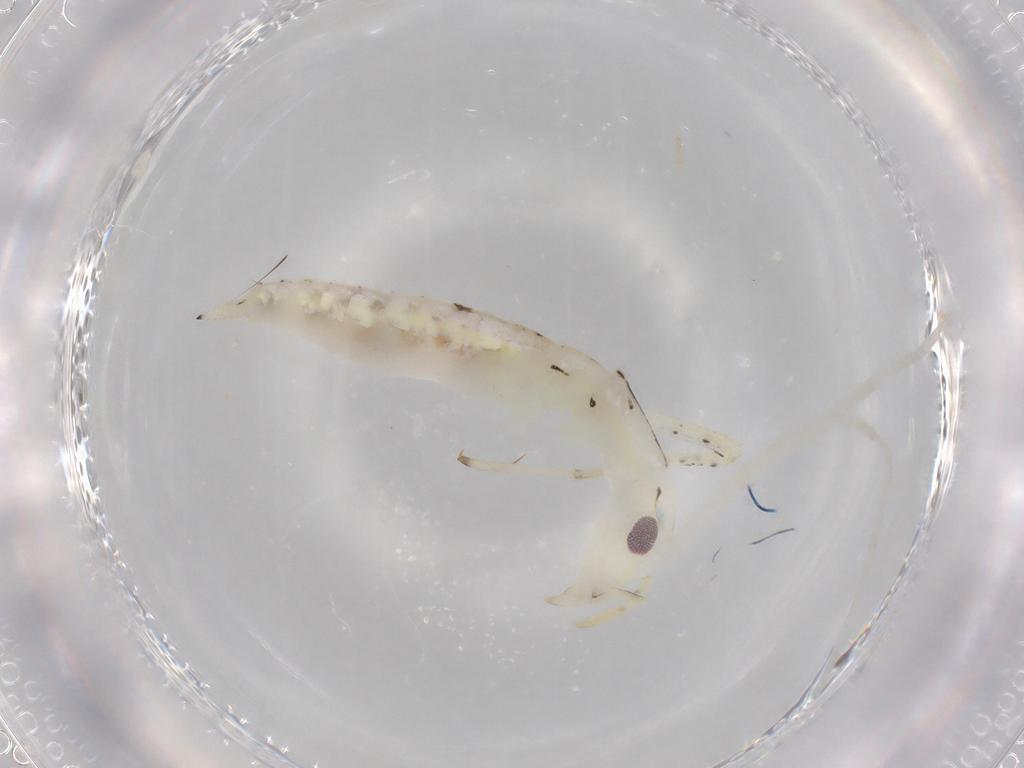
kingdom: Animalia
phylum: Arthropoda
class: Insecta
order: Orthoptera
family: Oecanthidae
